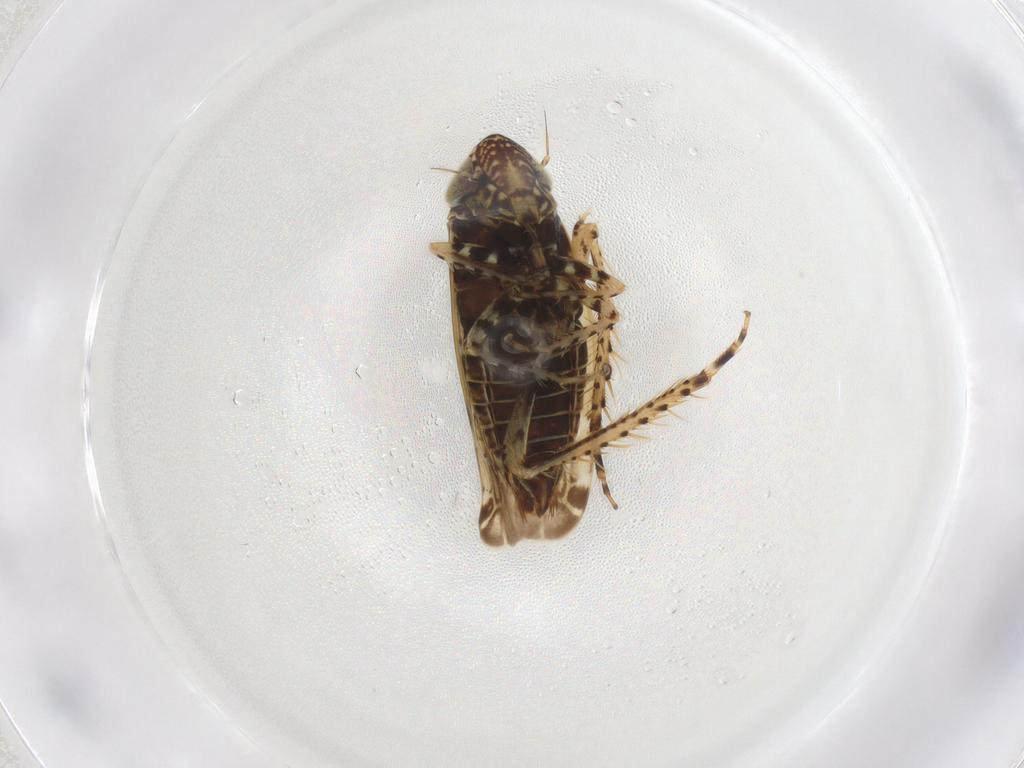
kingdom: Animalia
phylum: Arthropoda
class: Insecta
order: Hemiptera
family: Cicadellidae
